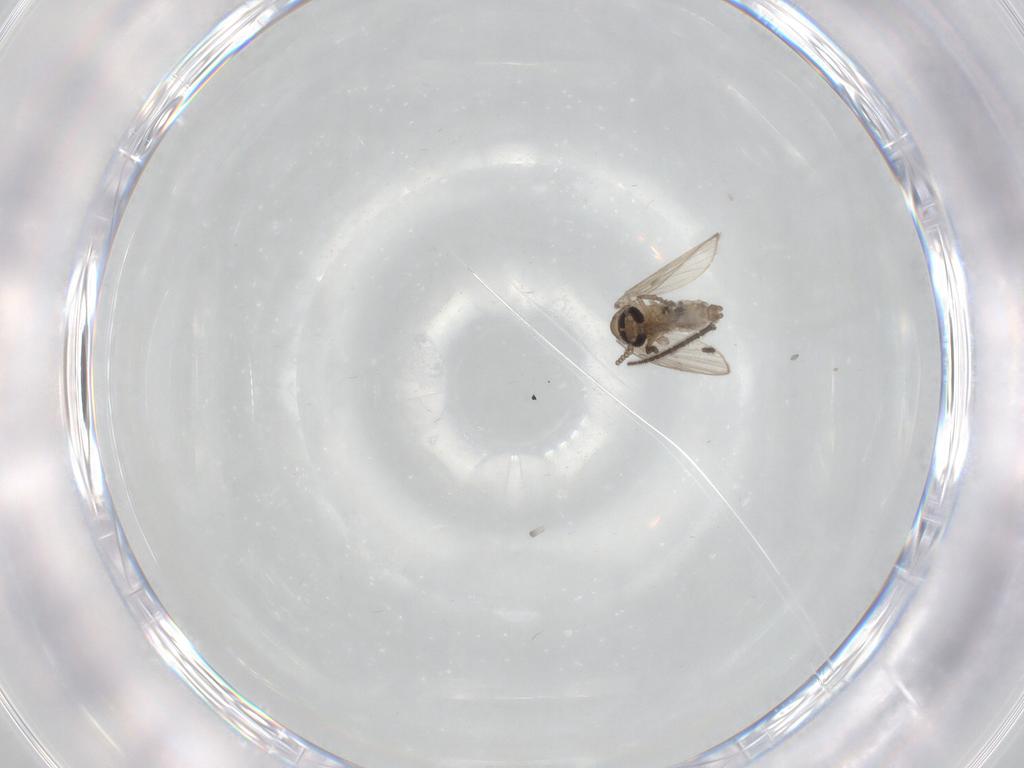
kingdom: Animalia
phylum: Arthropoda
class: Insecta
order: Diptera
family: Psychodidae
